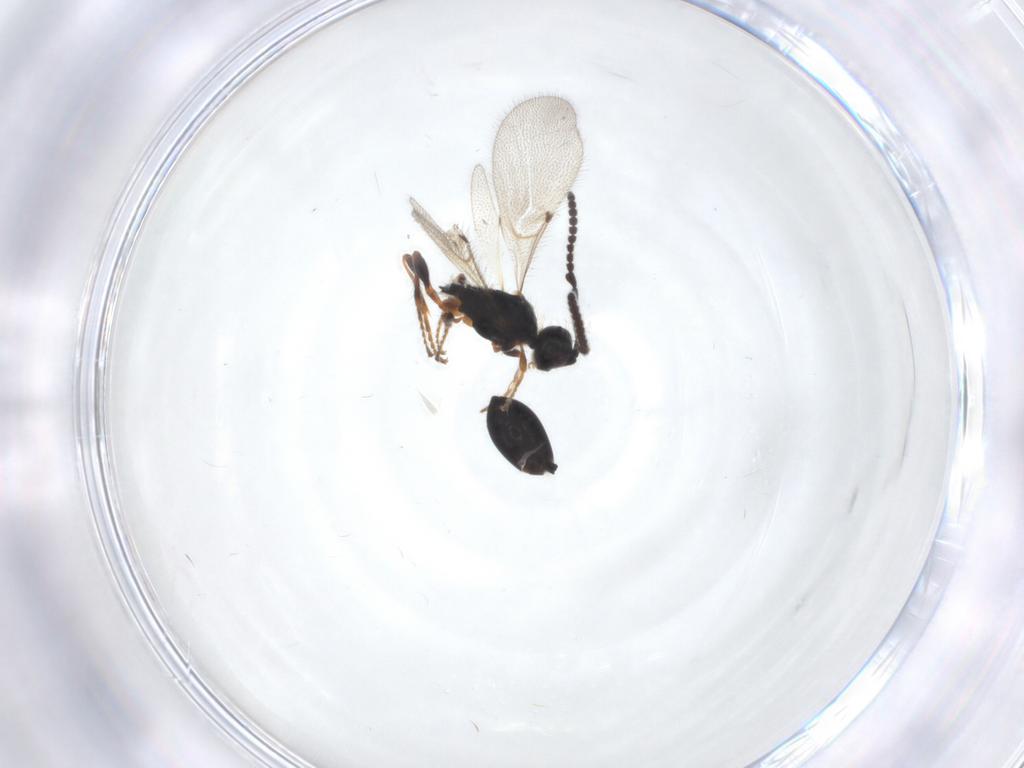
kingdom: Animalia
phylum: Arthropoda
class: Insecta
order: Hymenoptera
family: Diapriidae
